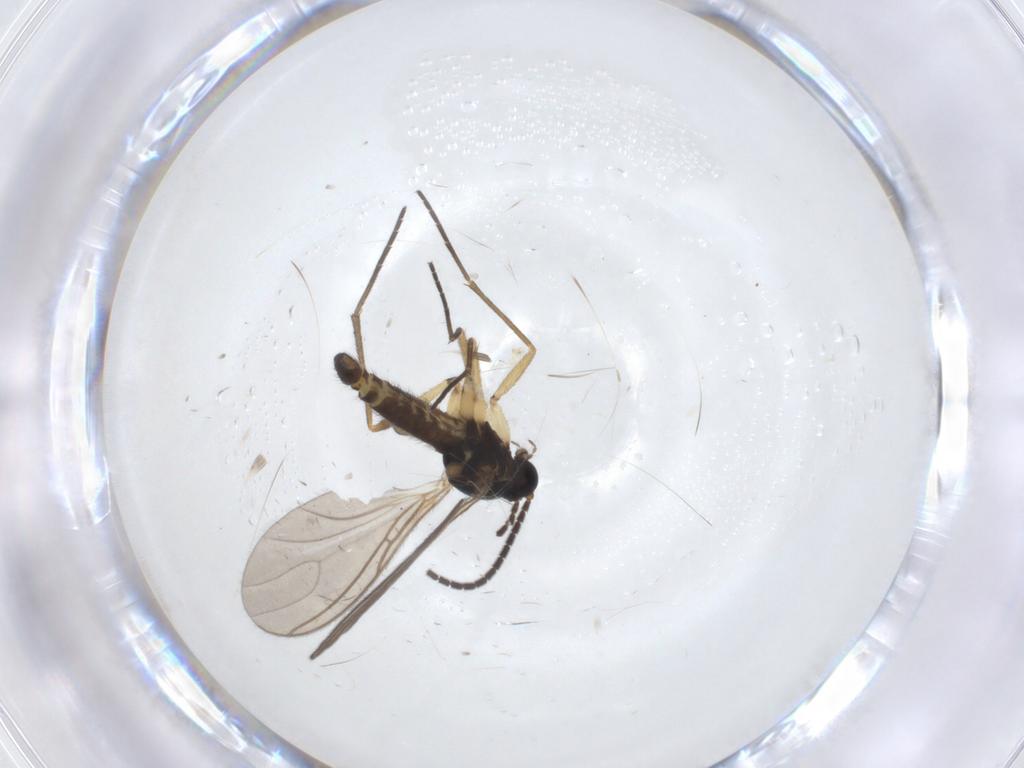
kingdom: Animalia
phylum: Arthropoda
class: Insecta
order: Diptera
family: Sciaridae
